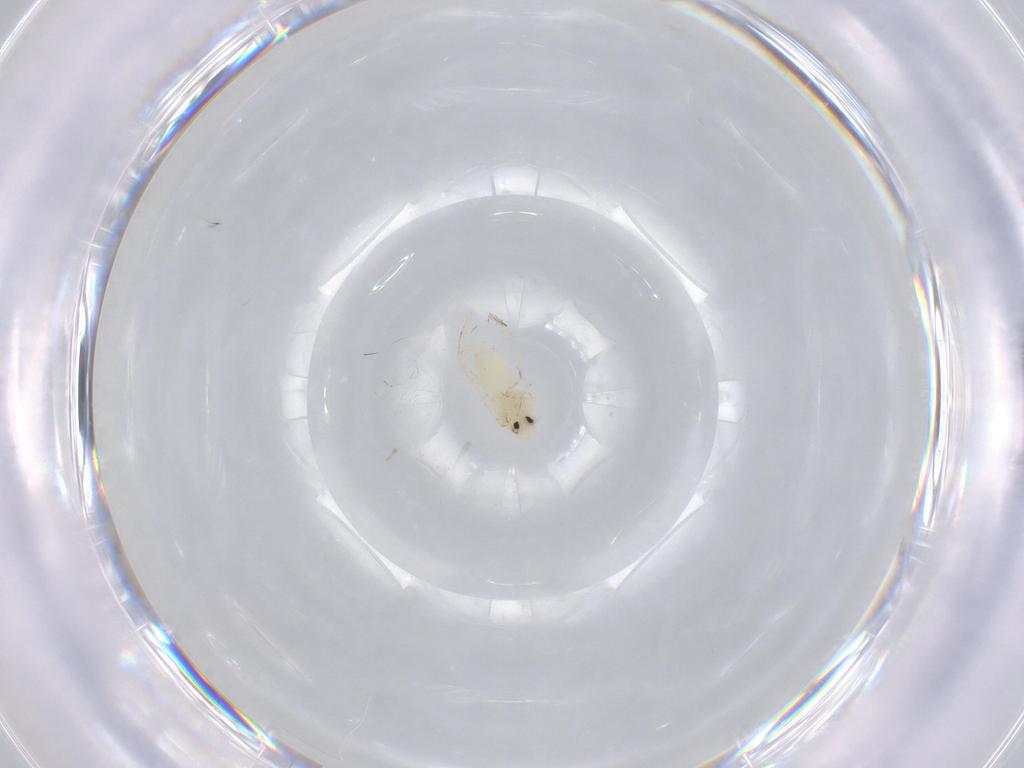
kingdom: Animalia
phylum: Arthropoda
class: Insecta
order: Hemiptera
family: Aleyrodidae
